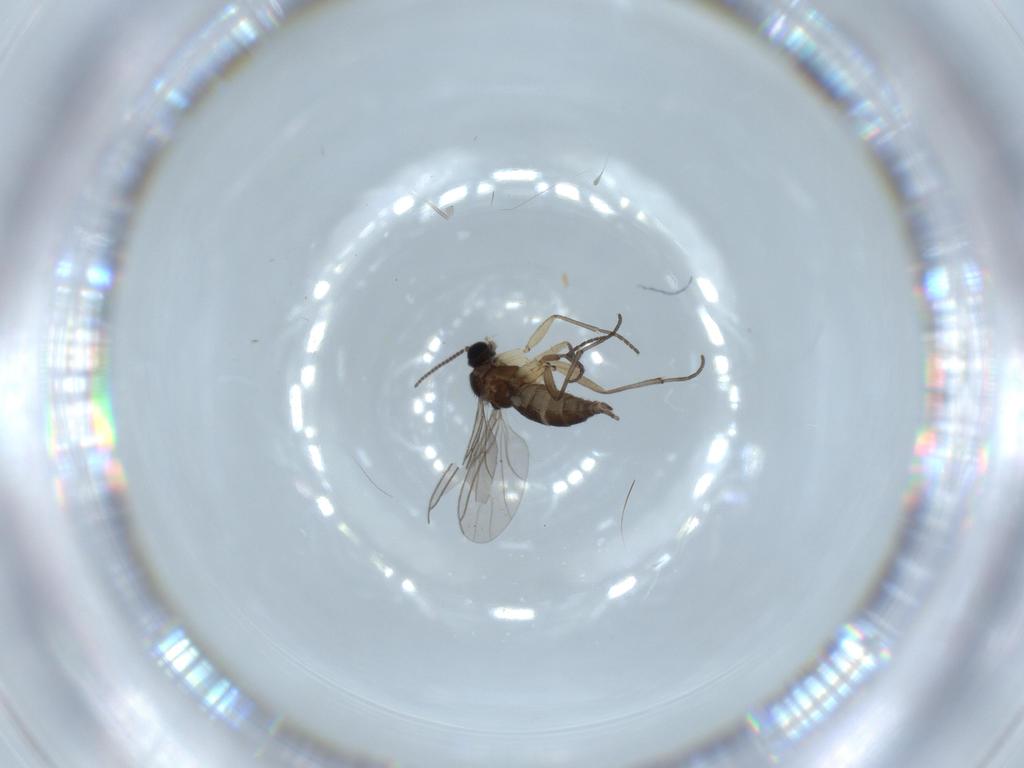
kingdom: Animalia
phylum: Arthropoda
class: Insecta
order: Diptera
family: Sciaridae
